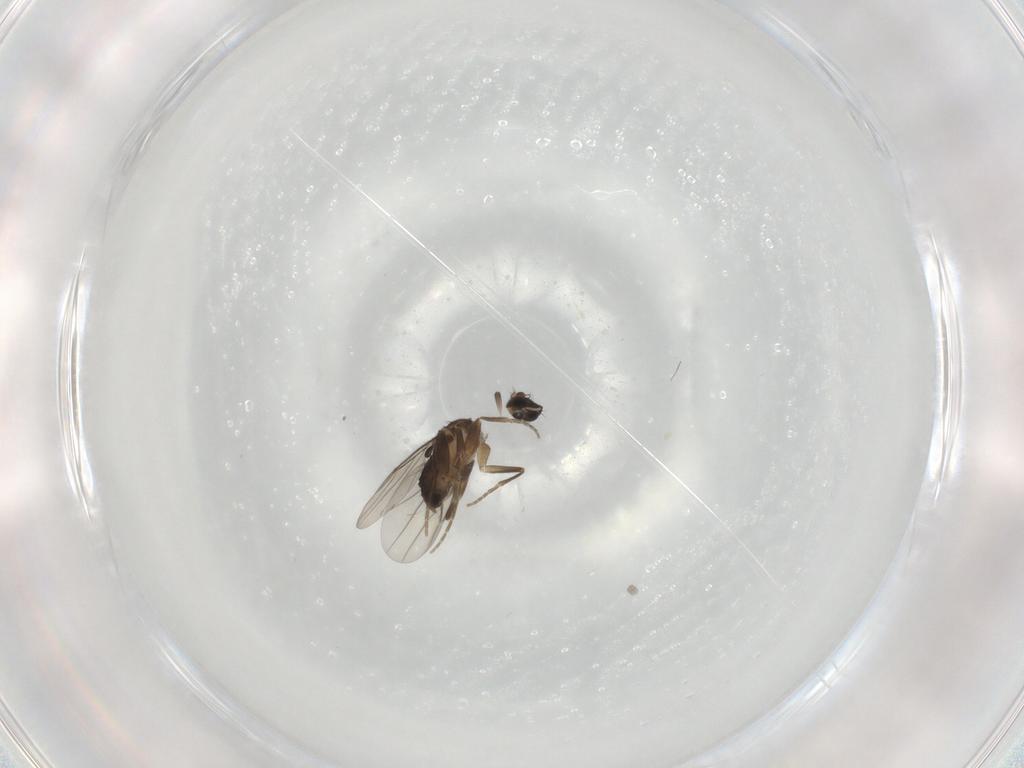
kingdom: Animalia
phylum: Arthropoda
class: Insecta
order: Diptera
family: Phoridae
